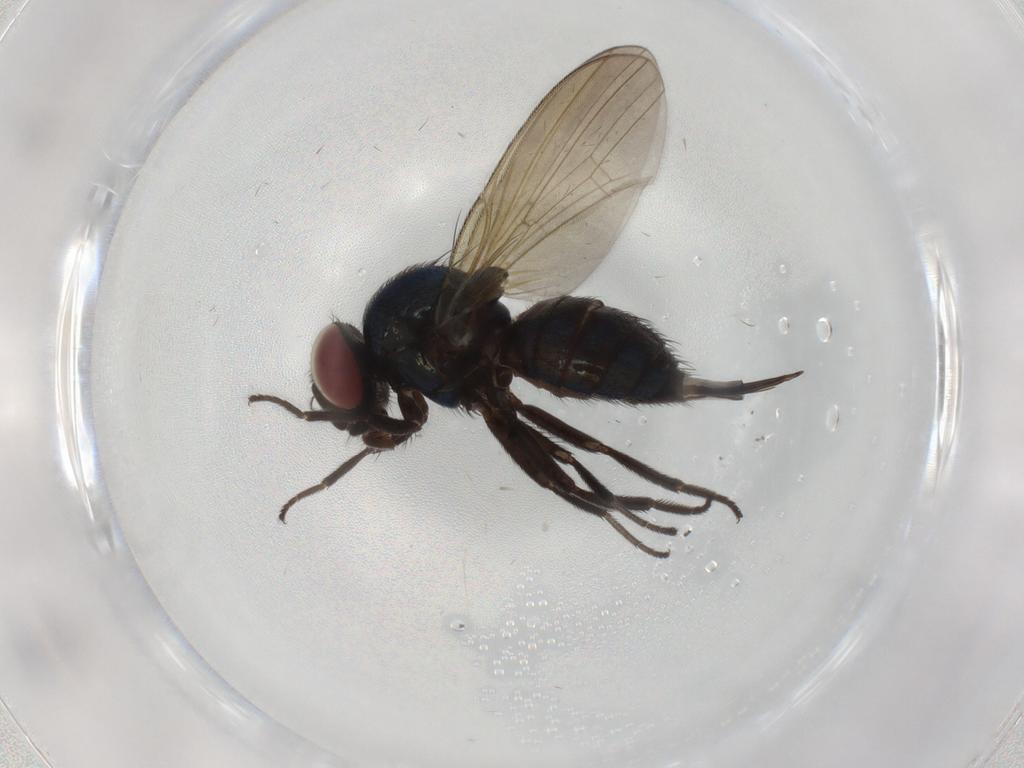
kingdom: Animalia
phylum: Arthropoda
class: Insecta
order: Diptera
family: Lonchaeidae
